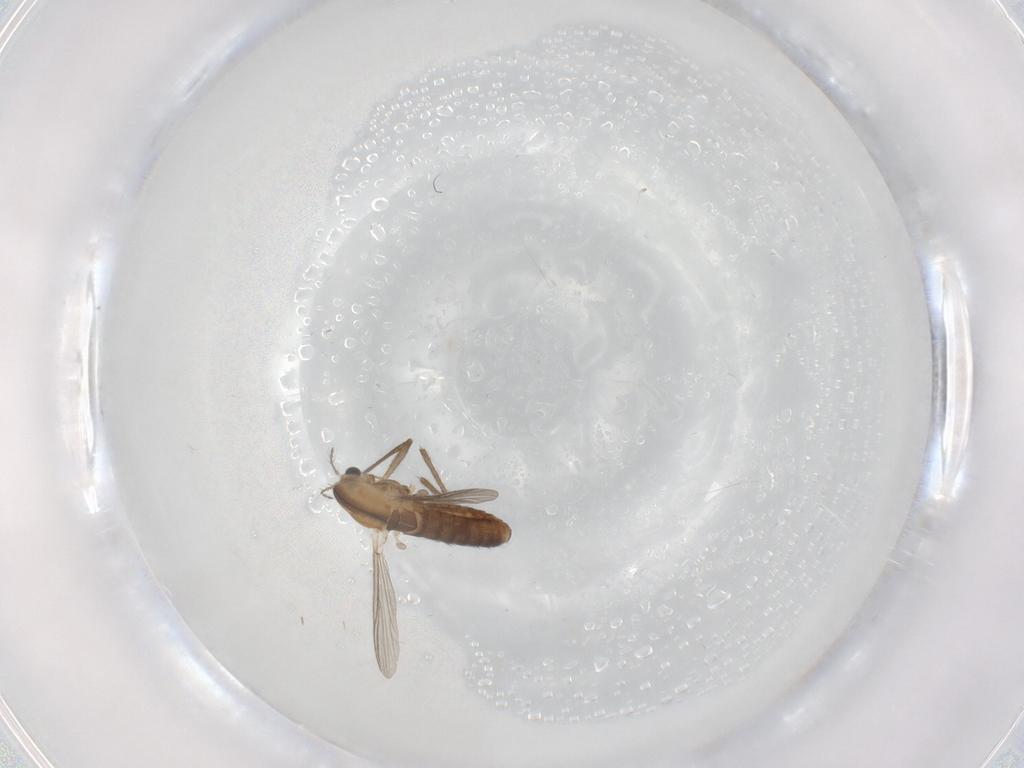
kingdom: Animalia
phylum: Arthropoda
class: Insecta
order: Diptera
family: Chironomidae
